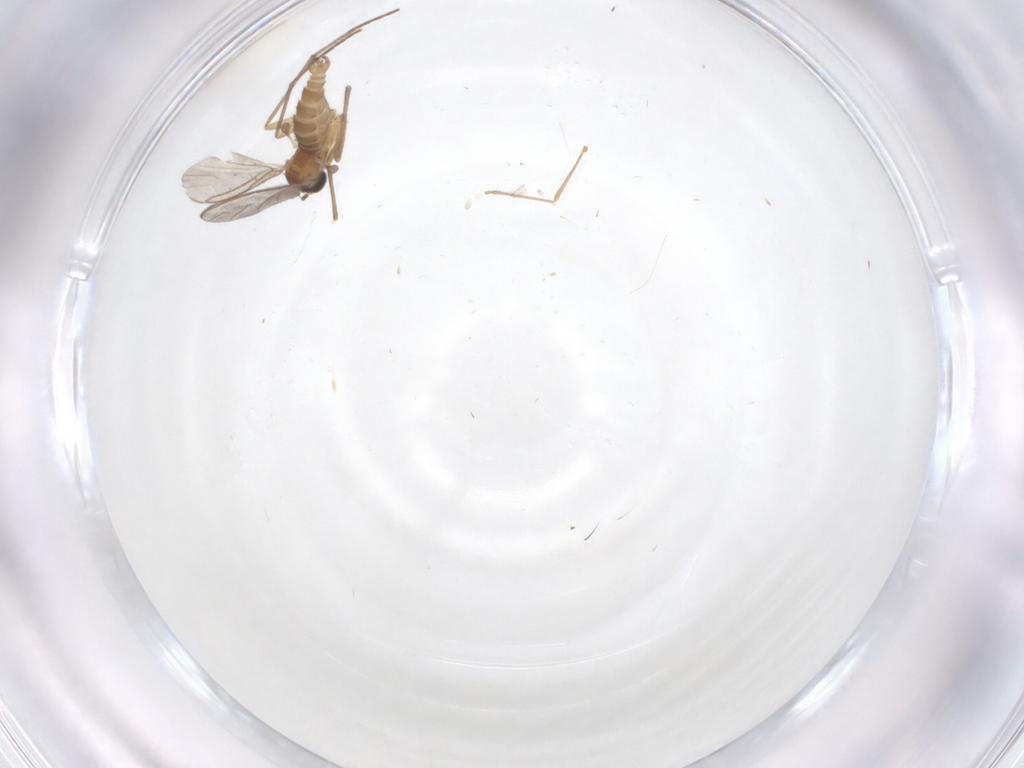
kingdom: Animalia
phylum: Arthropoda
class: Insecta
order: Diptera
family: Sciaridae
